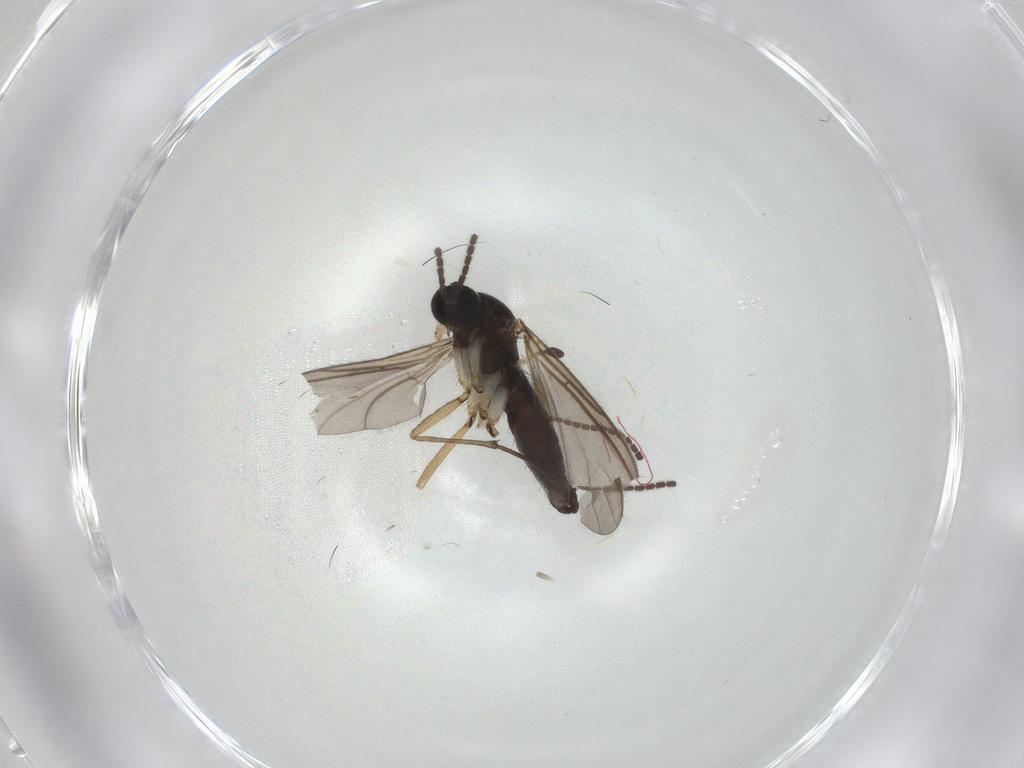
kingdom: Animalia
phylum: Arthropoda
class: Insecta
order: Diptera
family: Sciaridae
